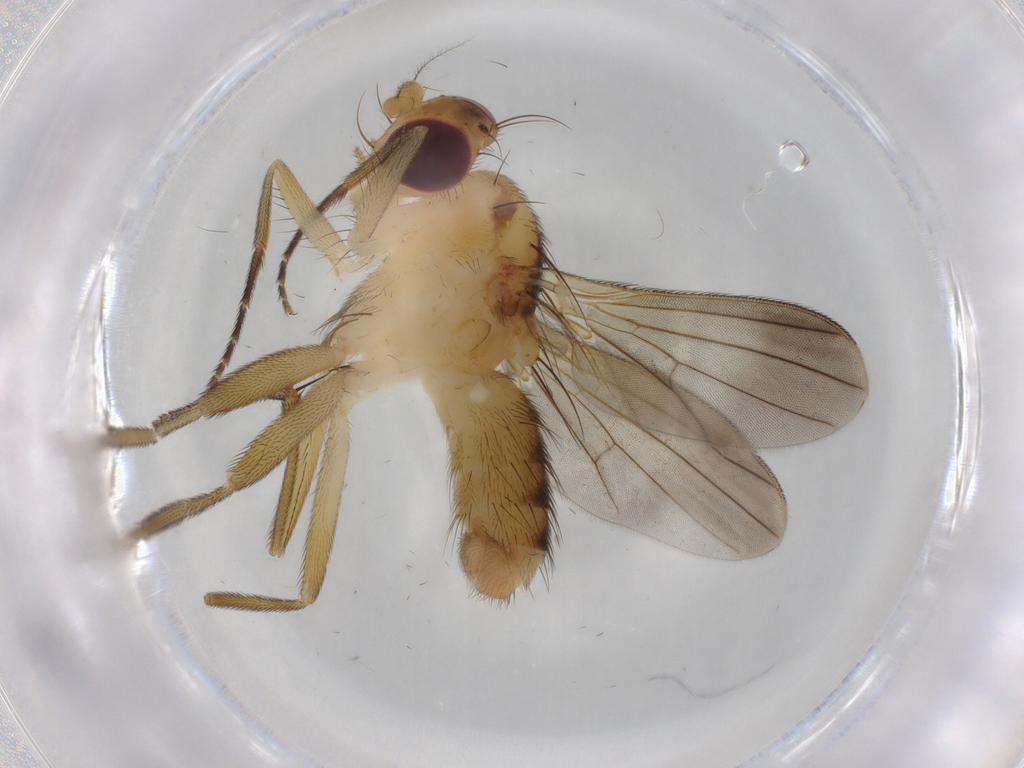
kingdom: Animalia
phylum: Arthropoda
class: Insecta
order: Diptera
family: Clusiidae
